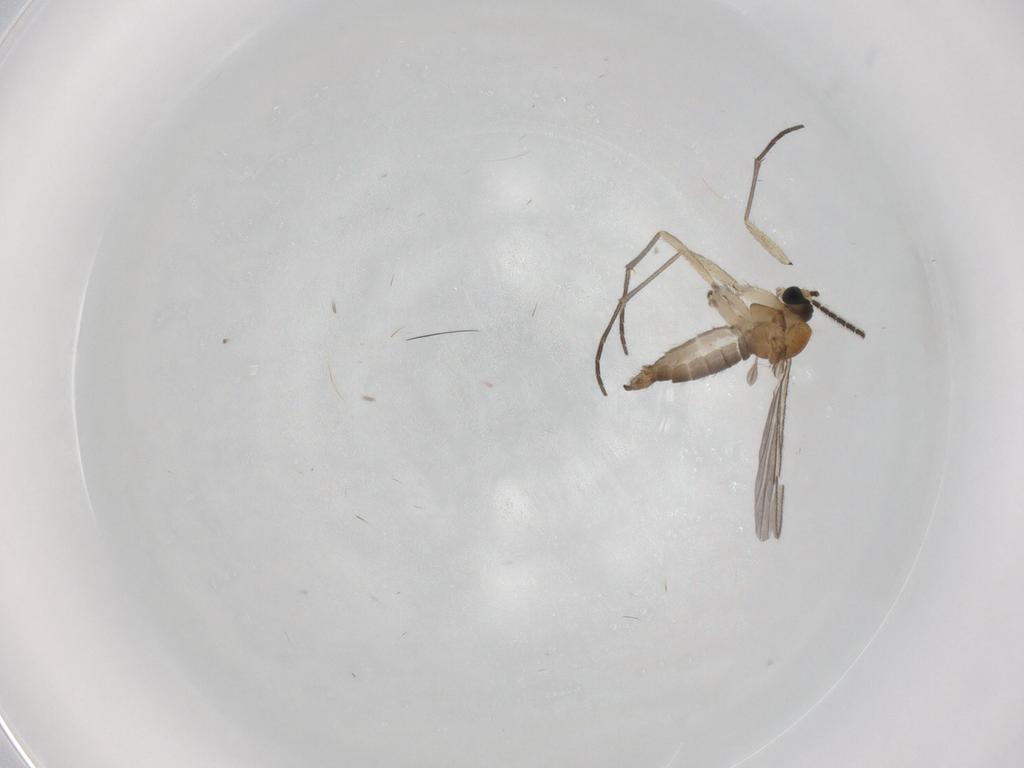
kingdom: Animalia
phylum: Arthropoda
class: Insecta
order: Diptera
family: Sciaridae
